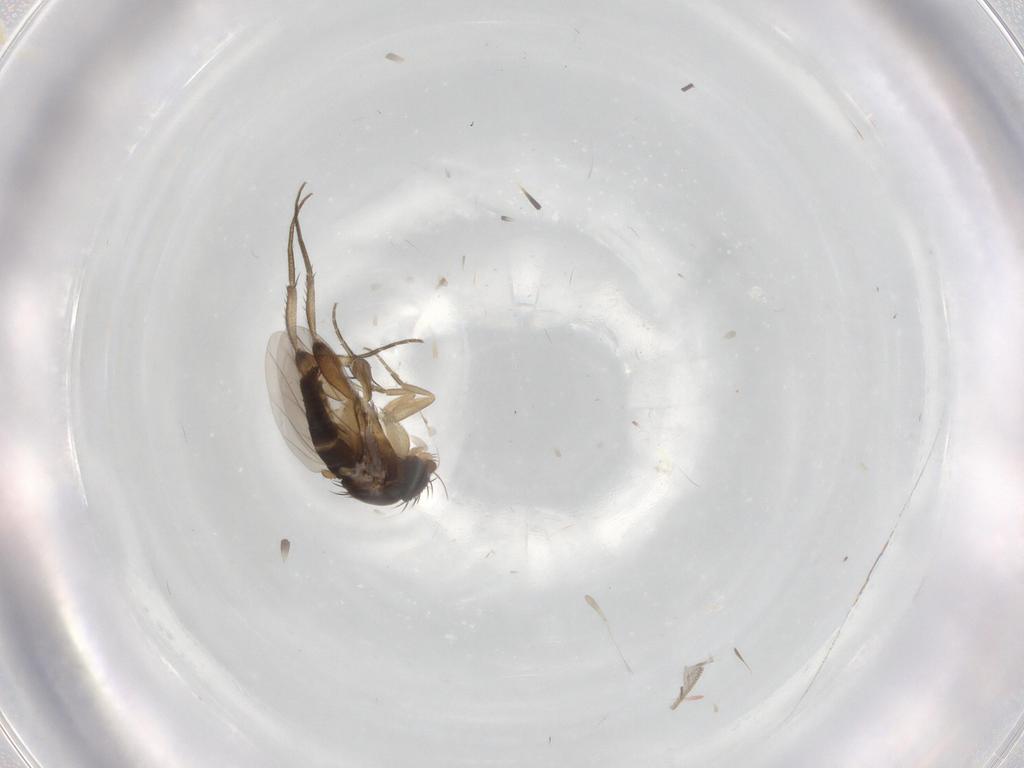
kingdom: Animalia
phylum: Arthropoda
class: Insecta
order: Diptera
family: Phoridae
